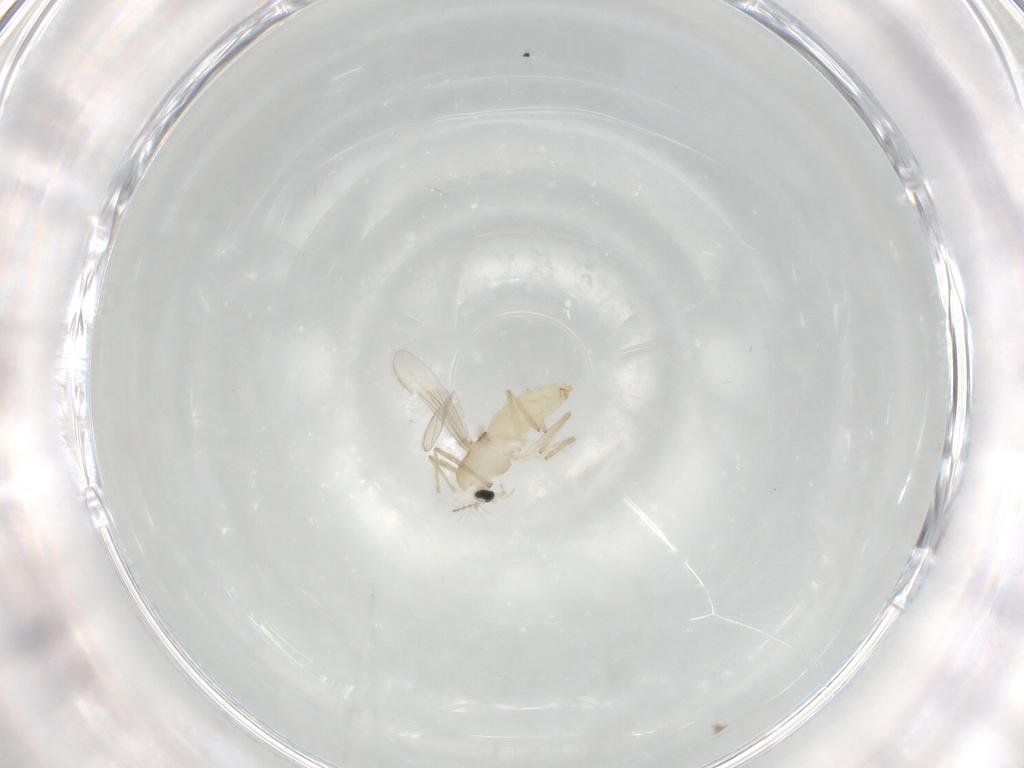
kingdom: Animalia
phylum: Arthropoda
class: Insecta
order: Diptera
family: Chironomidae
